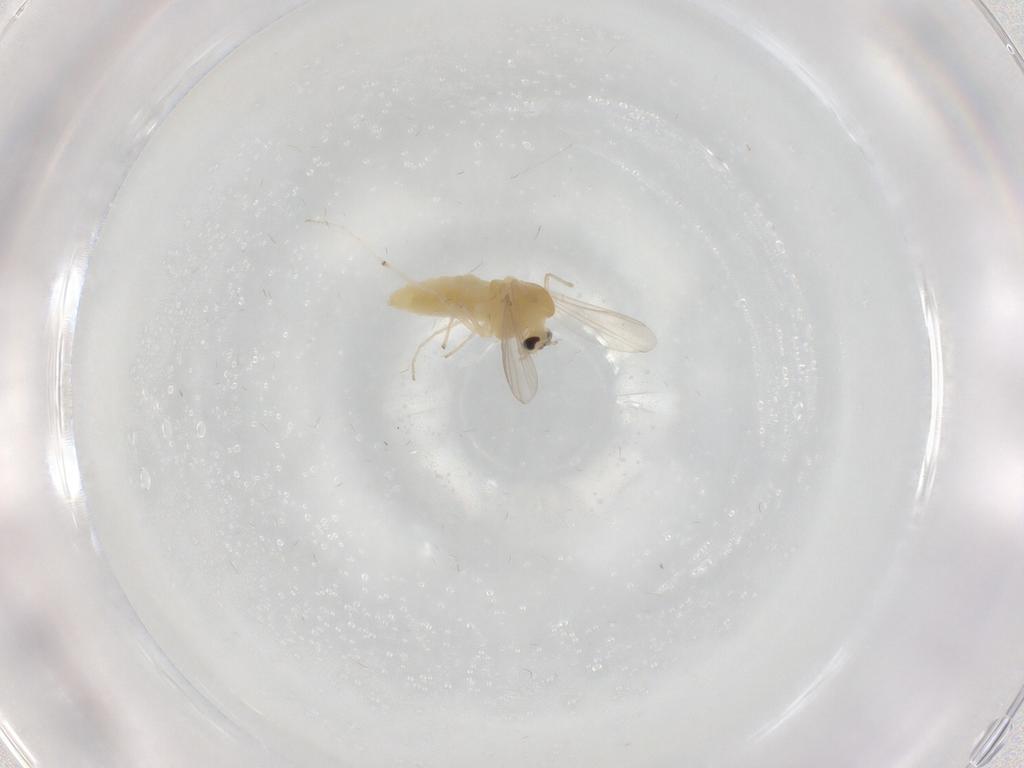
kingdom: Animalia
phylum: Arthropoda
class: Insecta
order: Diptera
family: Chironomidae
